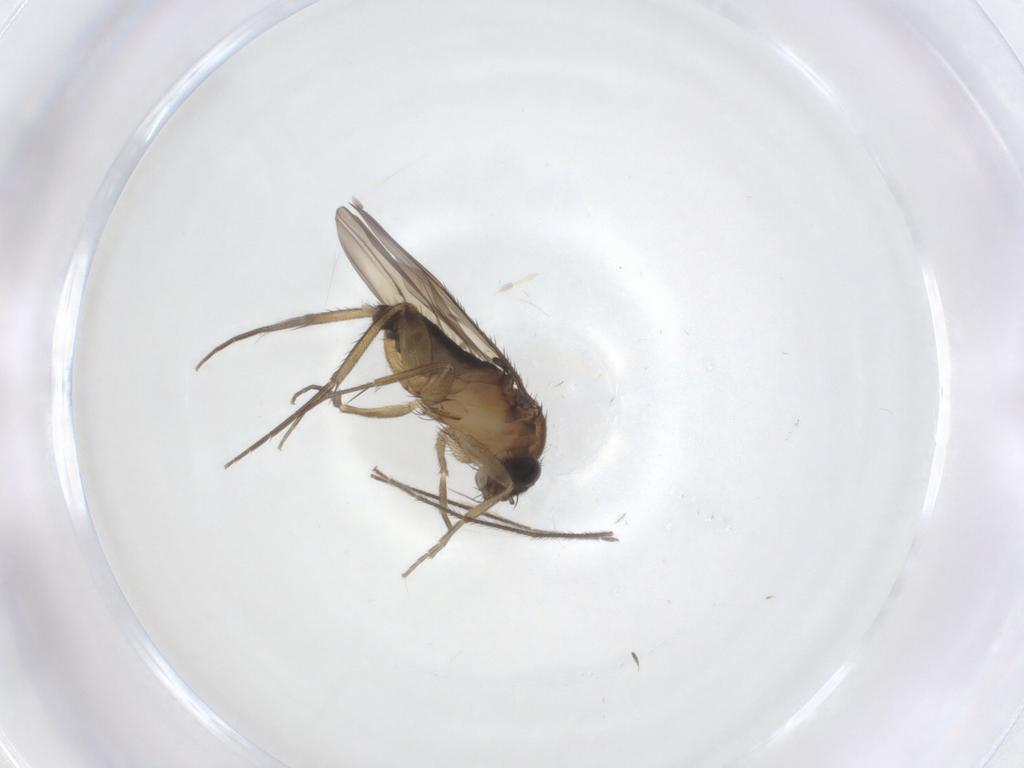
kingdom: Animalia
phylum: Arthropoda
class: Insecta
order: Diptera
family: Phoridae
